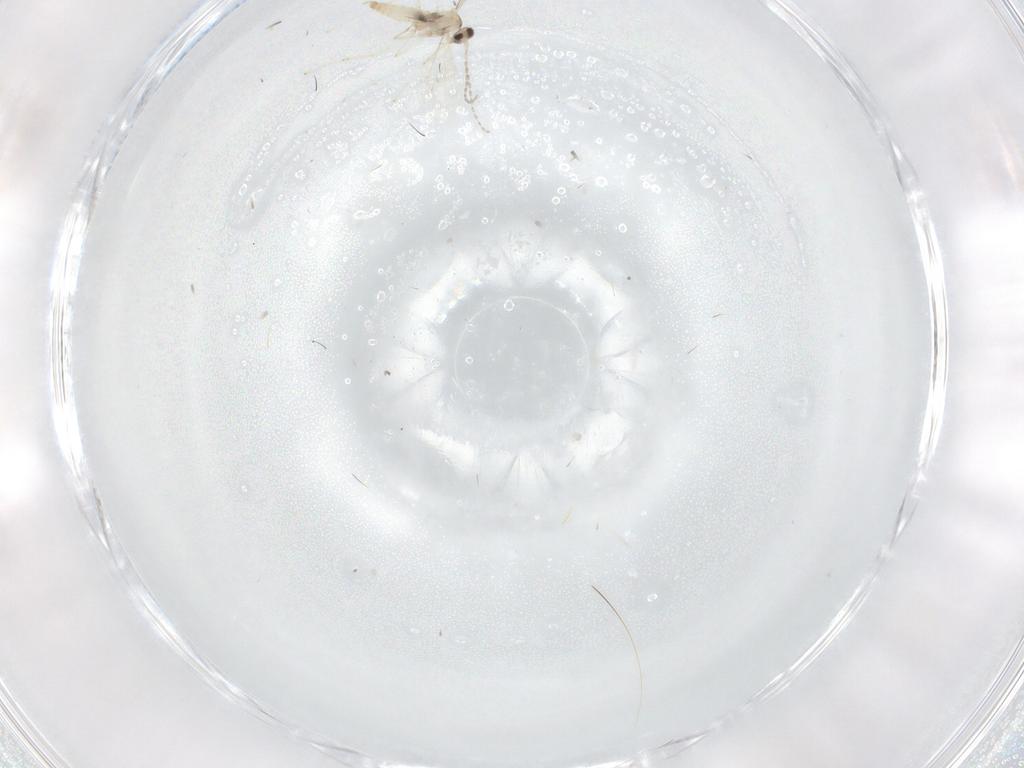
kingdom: Animalia
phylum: Arthropoda
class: Insecta
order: Diptera
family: Cecidomyiidae
